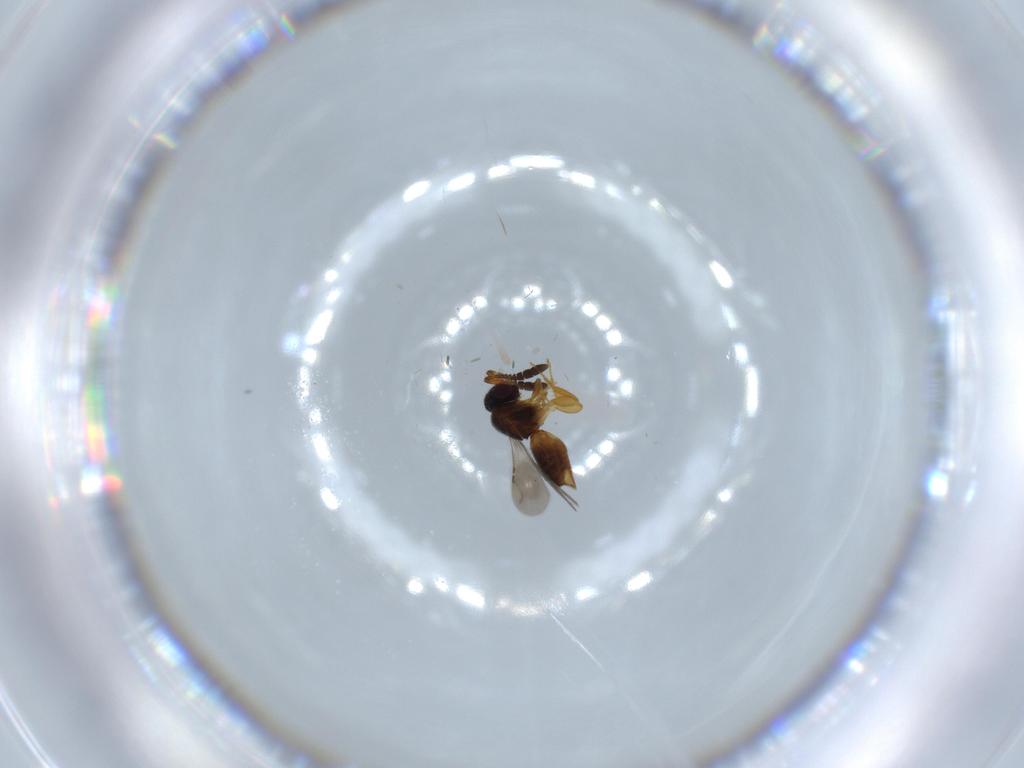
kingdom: Animalia
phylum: Arthropoda
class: Insecta
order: Hymenoptera
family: Ceraphronidae
